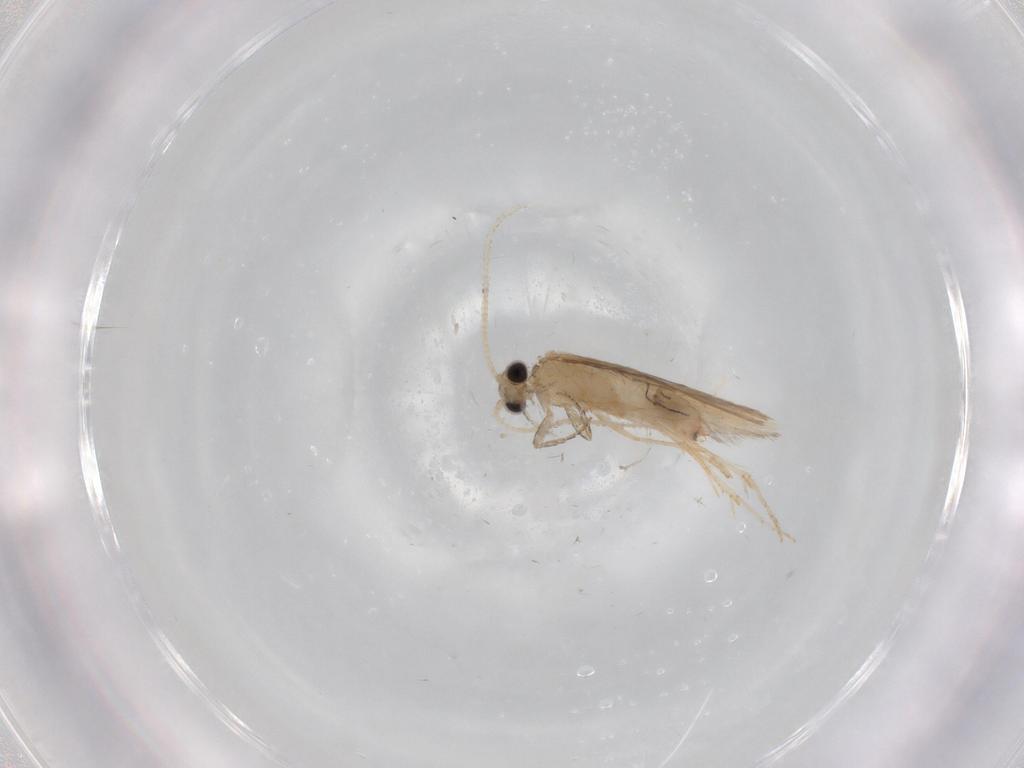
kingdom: Animalia
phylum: Arthropoda
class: Insecta
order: Trichoptera
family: Hydroptilidae
